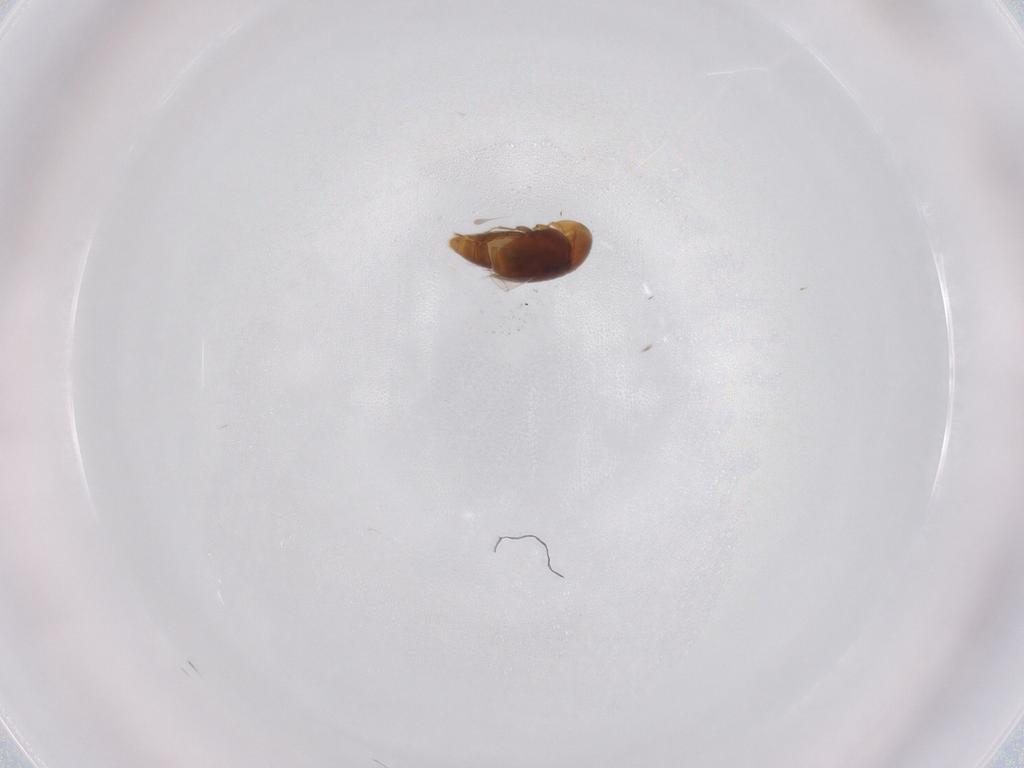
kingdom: Animalia
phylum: Arthropoda
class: Insecta
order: Coleoptera
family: Corylophidae
